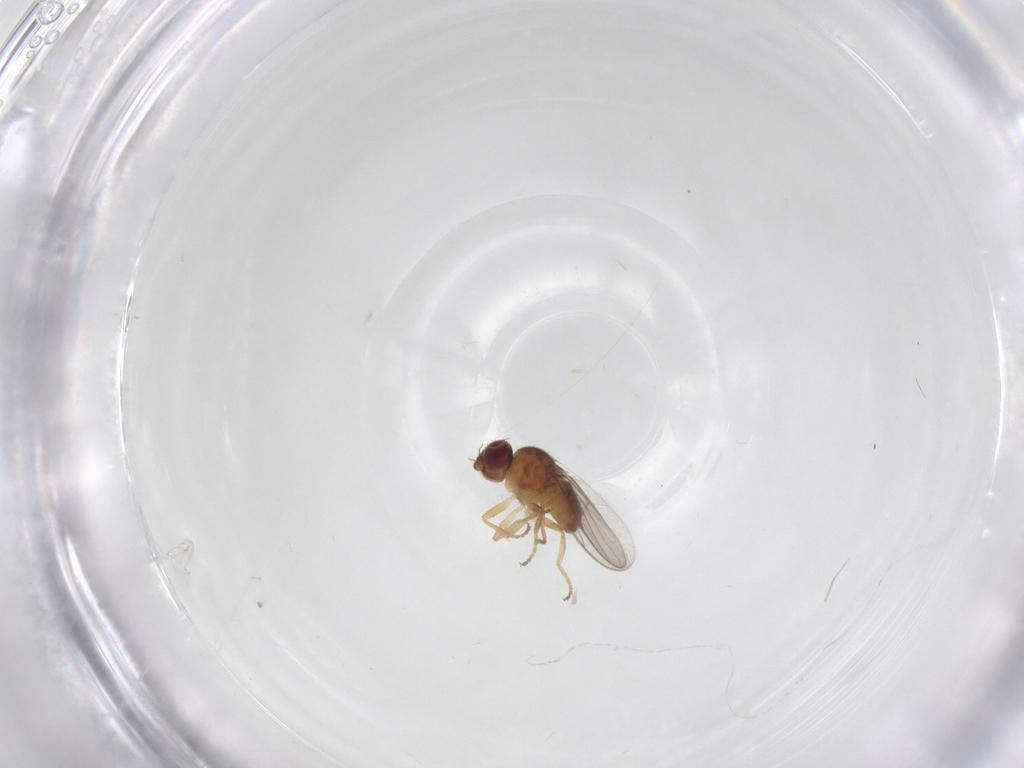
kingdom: Animalia
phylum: Arthropoda
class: Insecta
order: Diptera
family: Chloropidae
